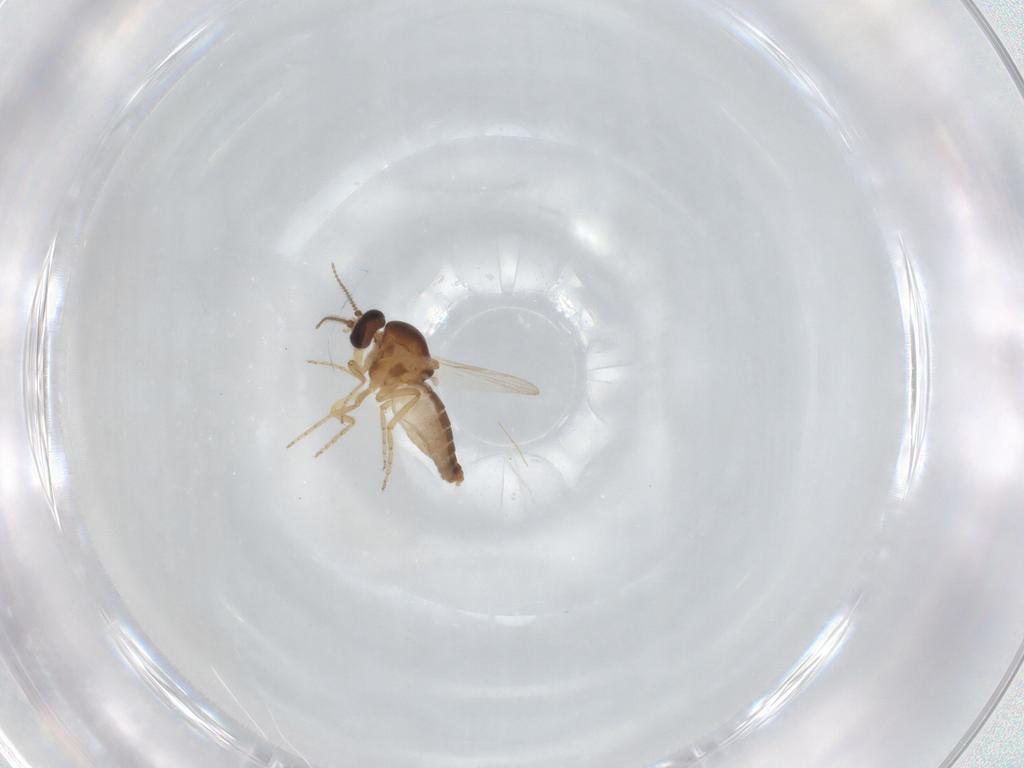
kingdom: Animalia
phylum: Arthropoda
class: Insecta
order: Diptera
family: Ceratopogonidae
